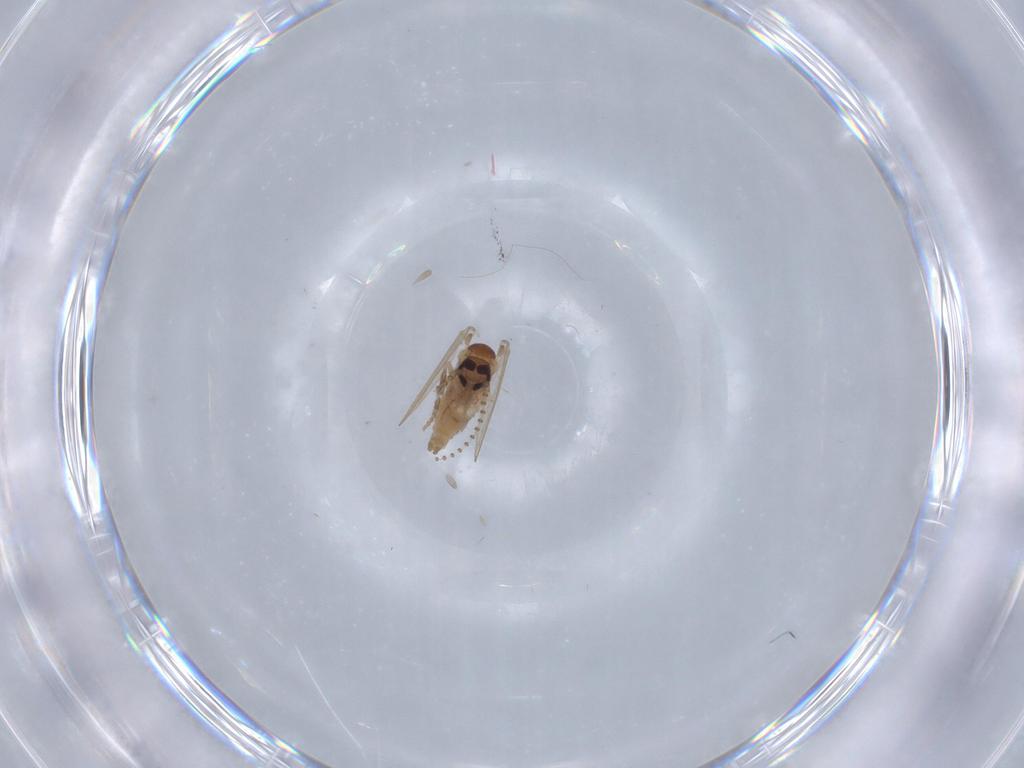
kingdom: Animalia
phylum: Arthropoda
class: Insecta
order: Diptera
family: Psychodidae
